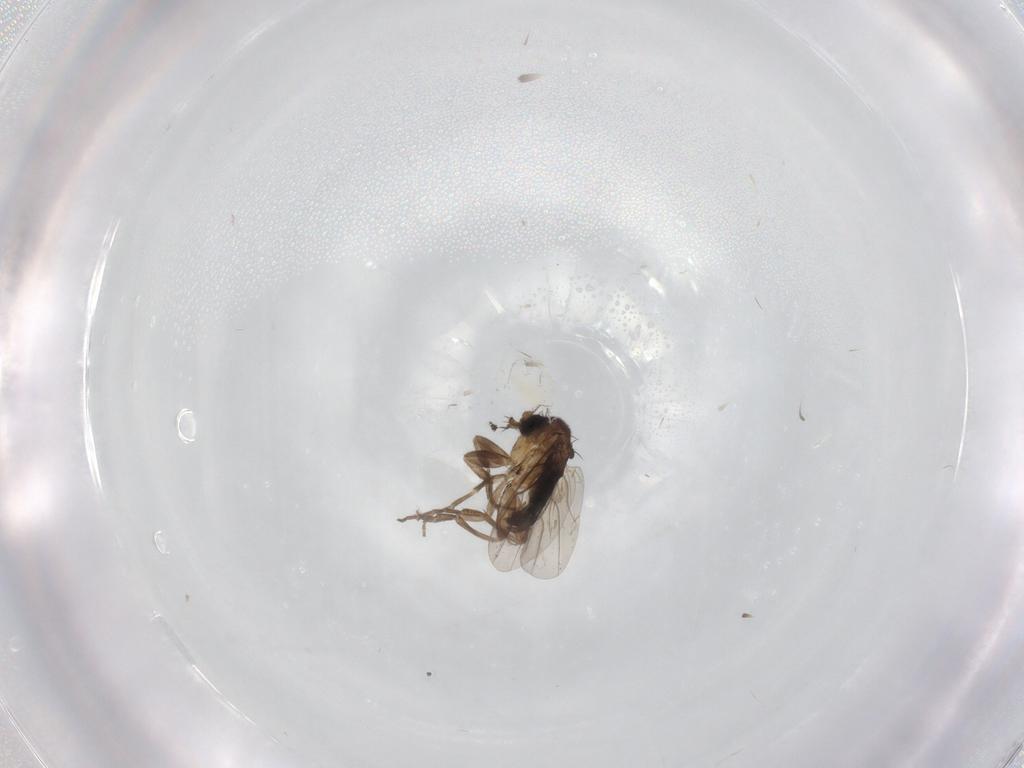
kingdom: Animalia
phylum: Arthropoda
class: Insecta
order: Diptera
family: Phoridae
